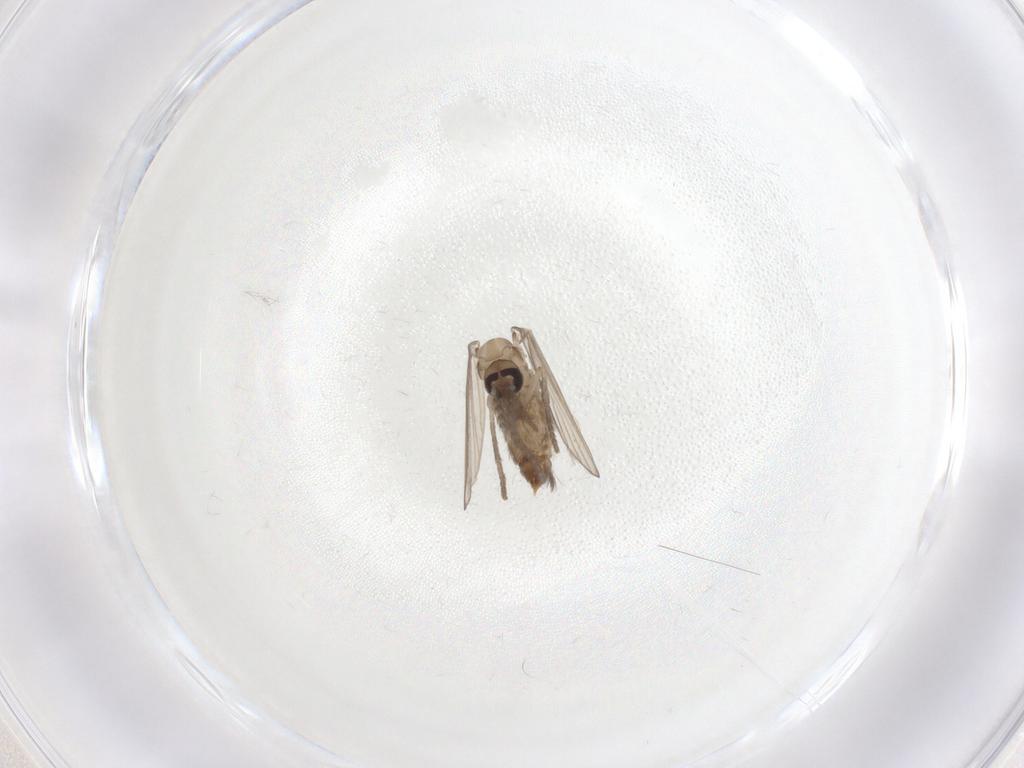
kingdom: Animalia
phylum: Arthropoda
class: Insecta
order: Diptera
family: Psychodidae
